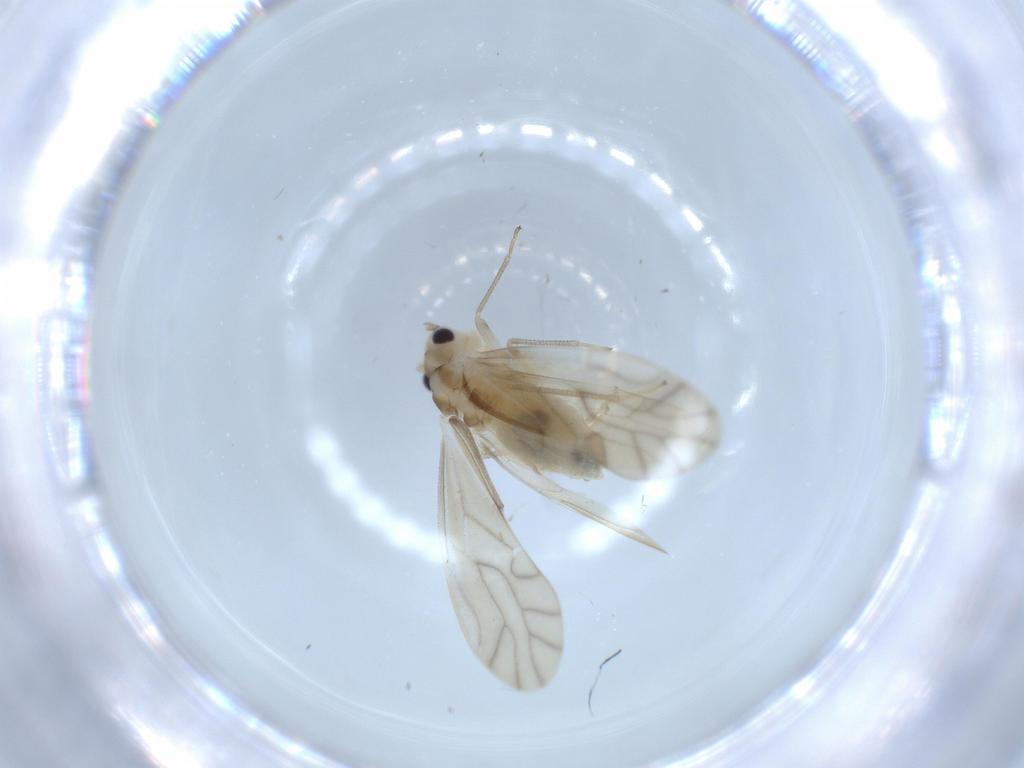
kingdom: Animalia
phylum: Arthropoda
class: Insecta
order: Psocodea
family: Caeciliusidae
